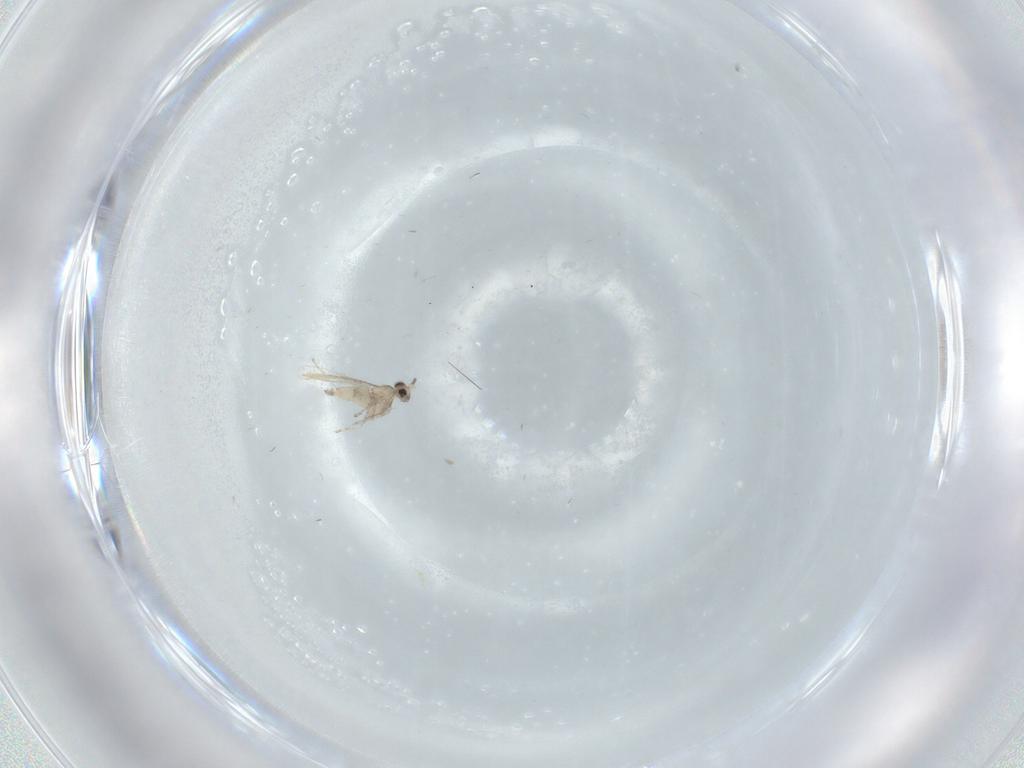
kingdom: Animalia
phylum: Arthropoda
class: Insecta
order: Diptera
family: Cecidomyiidae
